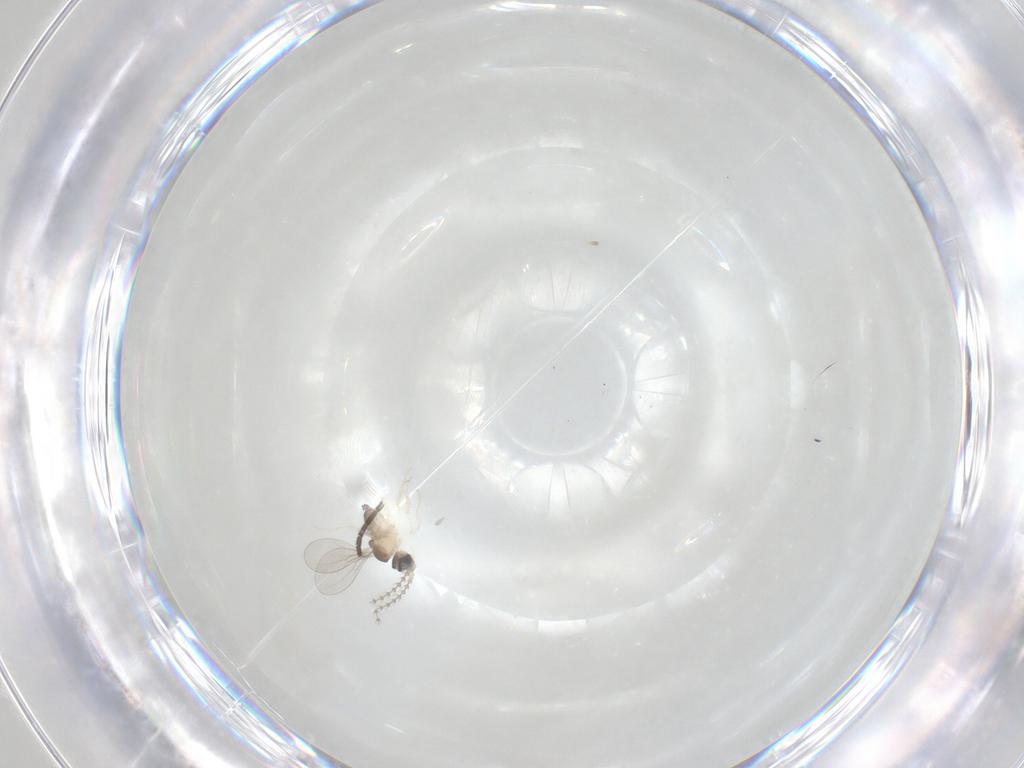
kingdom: Animalia
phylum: Arthropoda
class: Insecta
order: Diptera
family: Cecidomyiidae
